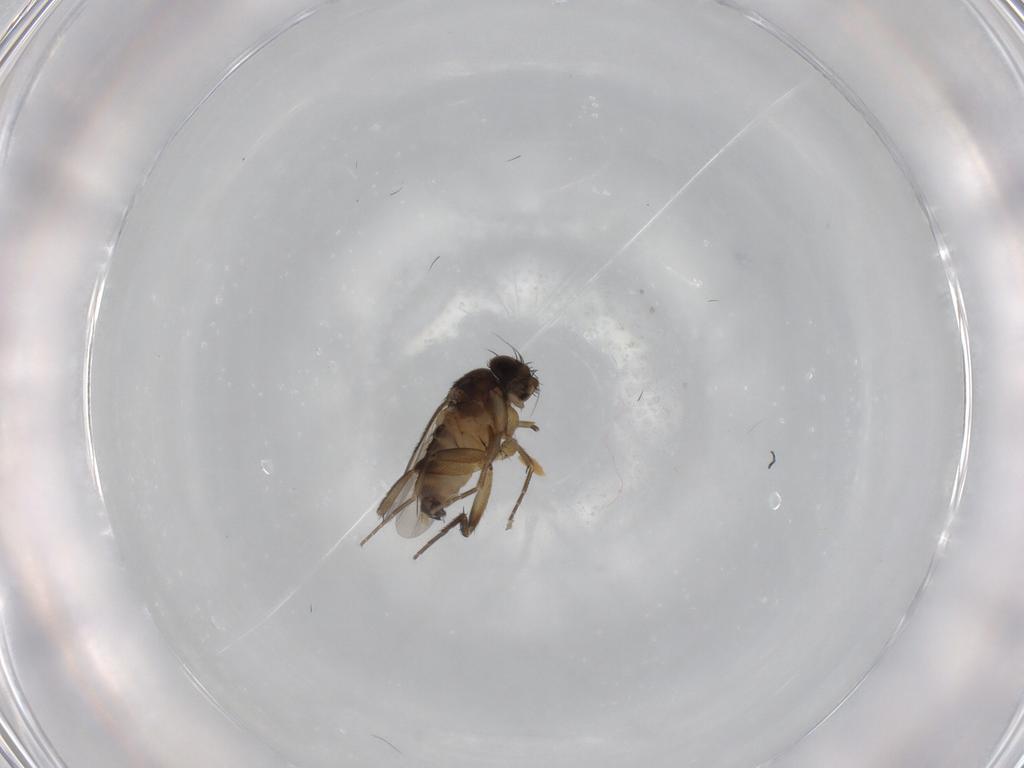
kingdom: Animalia
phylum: Arthropoda
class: Insecta
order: Diptera
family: Phoridae
